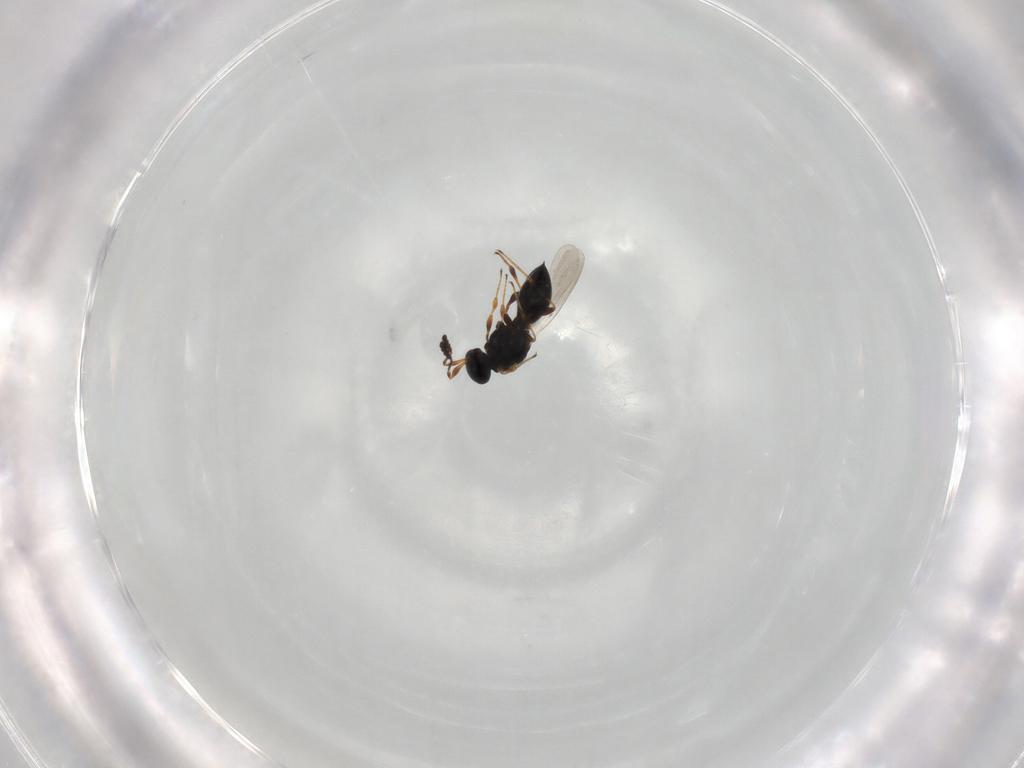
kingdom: Animalia
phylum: Arthropoda
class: Insecta
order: Hymenoptera
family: Platygastridae
